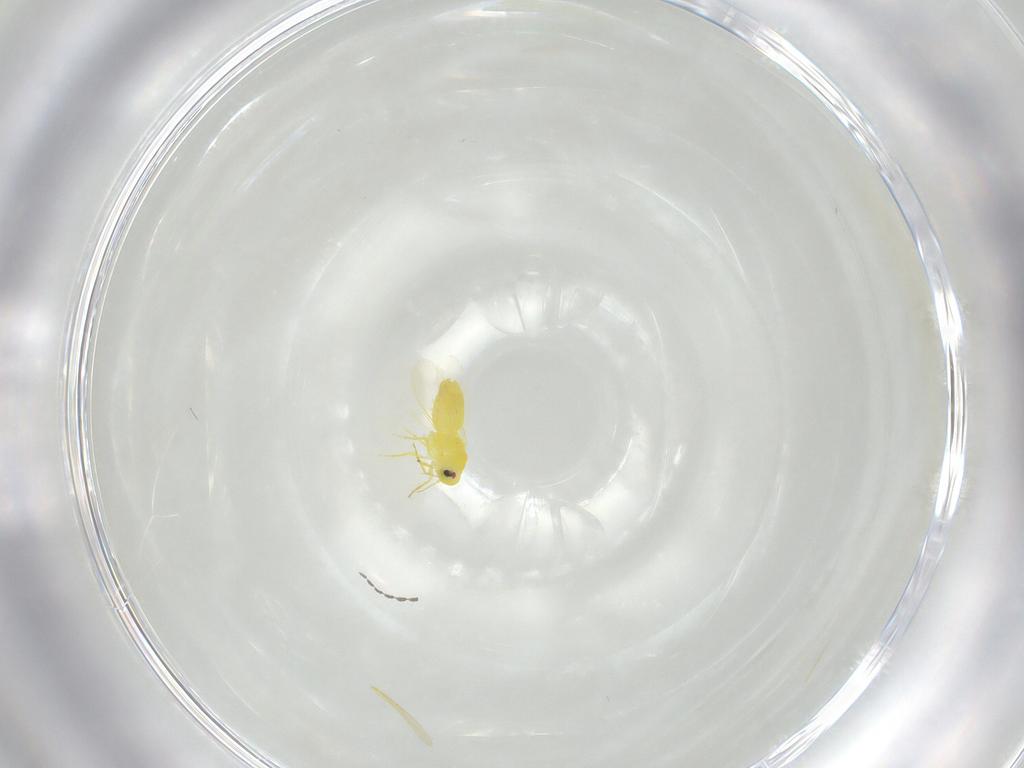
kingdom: Animalia
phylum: Arthropoda
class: Insecta
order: Hemiptera
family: Aleyrodidae
